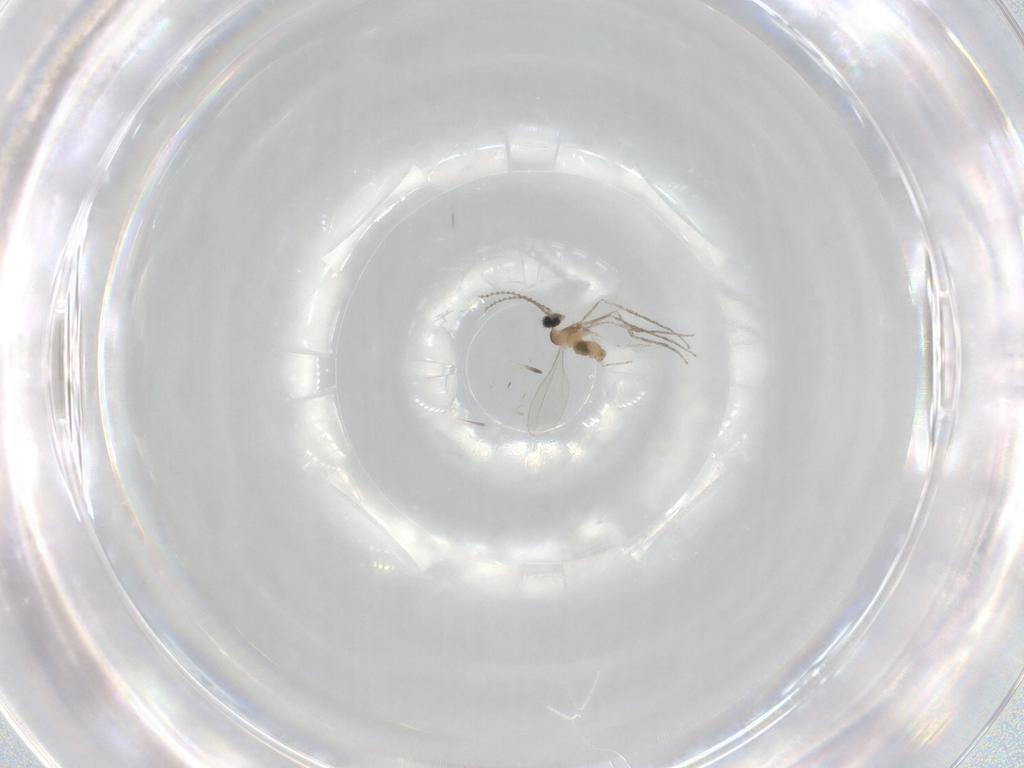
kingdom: Animalia
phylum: Arthropoda
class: Insecta
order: Diptera
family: Cecidomyiidae
